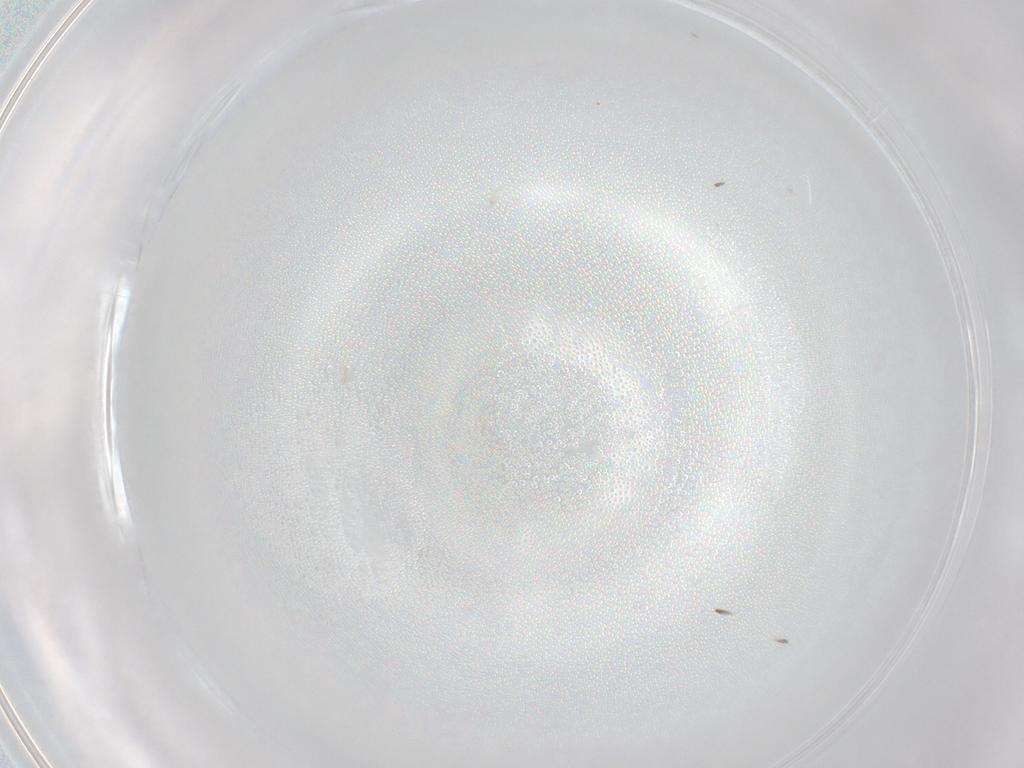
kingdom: Animalia
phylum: Arthropoda
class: Insecta
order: Hymenoptera
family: Mymarommatidae
